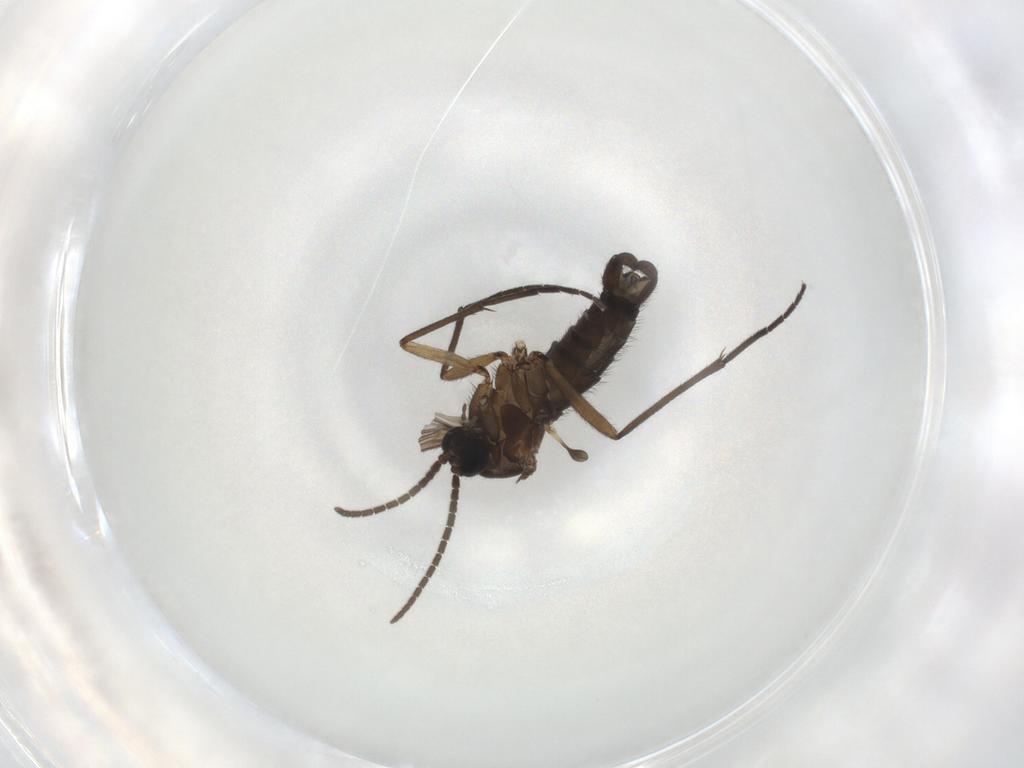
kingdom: Animalia
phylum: Arthropoda
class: Insecta
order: Diptera
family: Sciaridae
